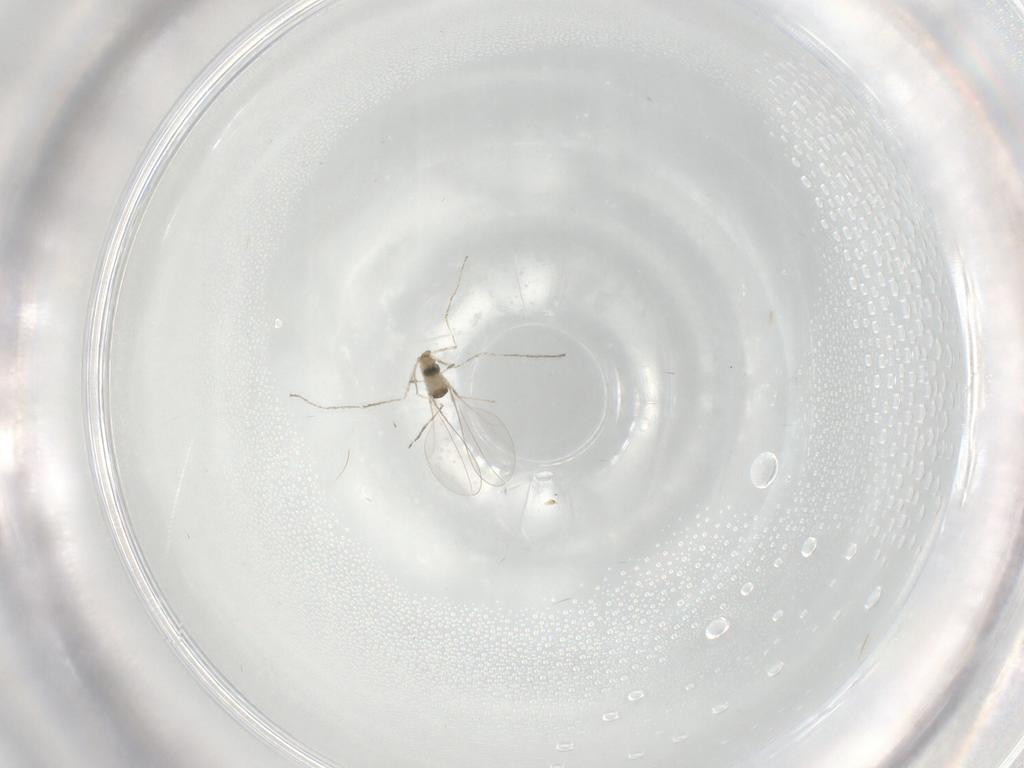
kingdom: Animalia
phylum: Arthropoda
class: Insecta
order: Diptera
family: Cecidomyiidae
